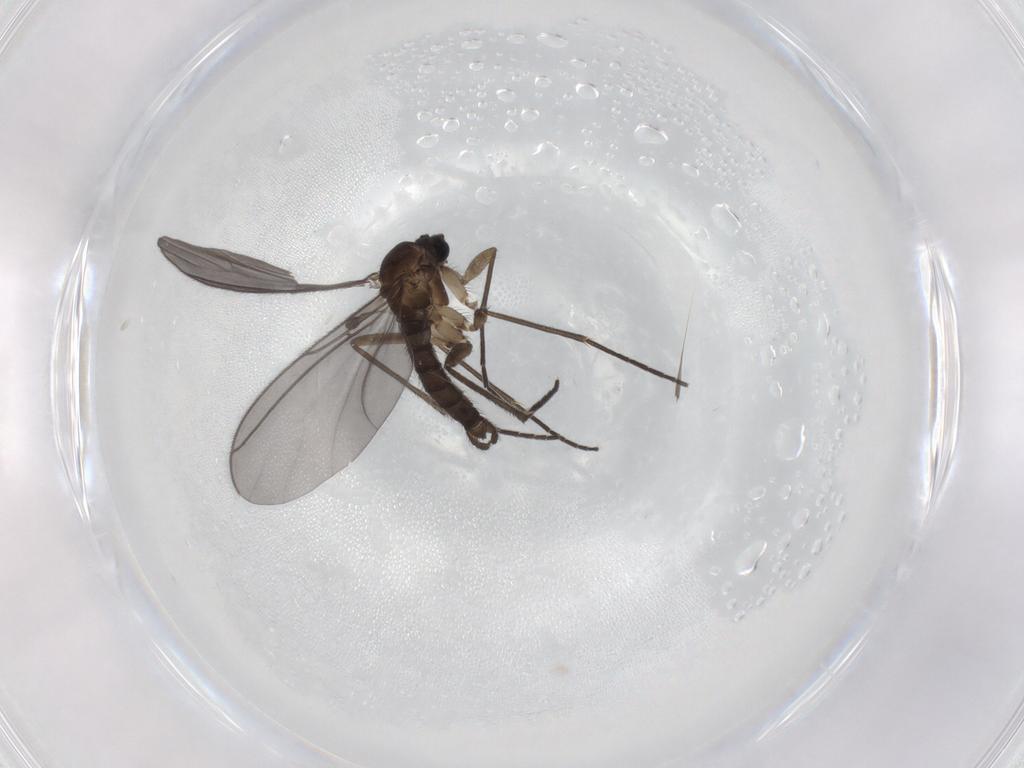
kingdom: Animalia
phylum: Arthropoda
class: Insecta
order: Diptera
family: Sciaridae
